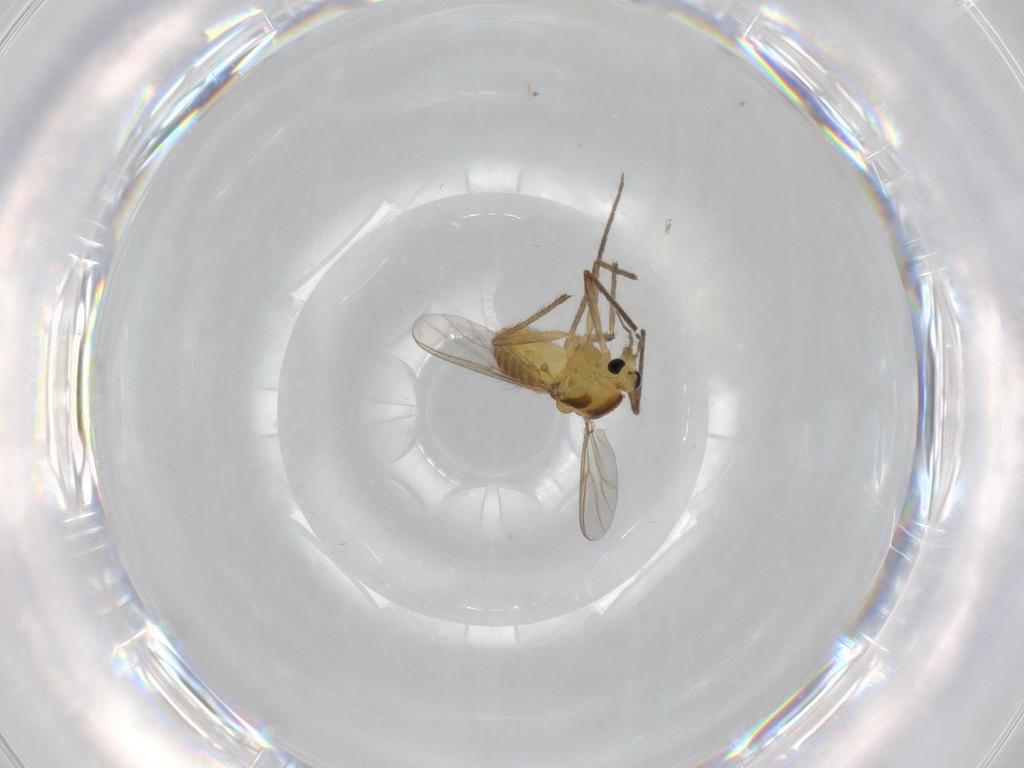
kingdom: Animalia
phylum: Arthropoda
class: Insecta
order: Diptera
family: Chironomidae
